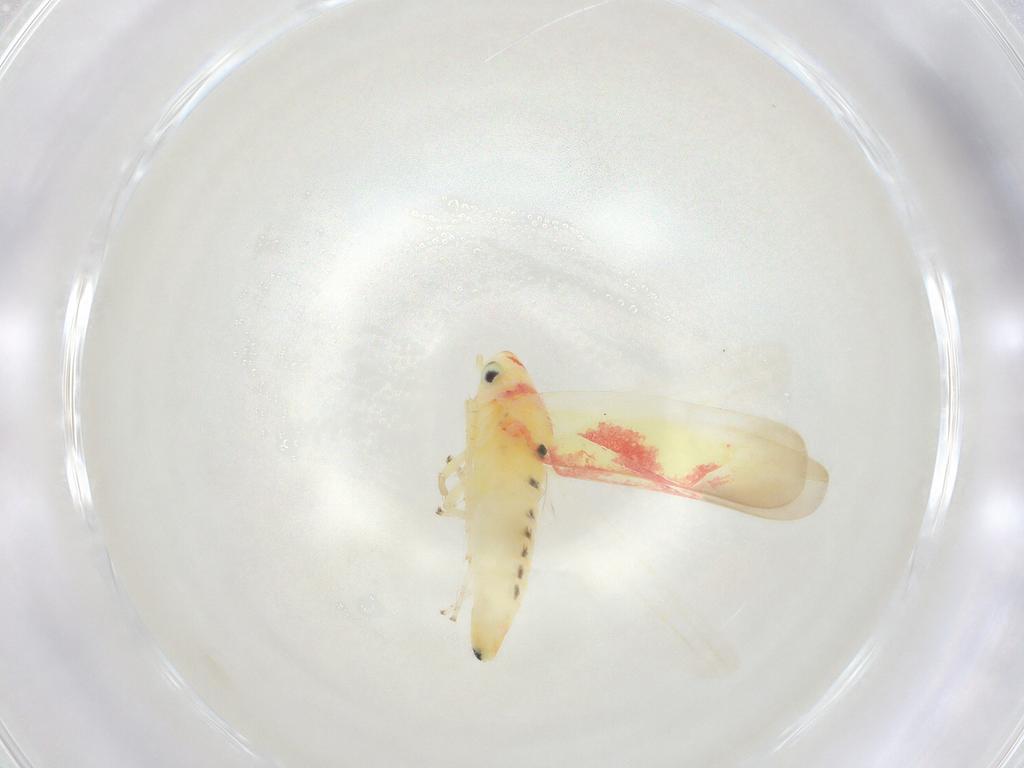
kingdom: Animalia
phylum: Arthropoda
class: Insecta
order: Hemiptera
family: Cicadellidae
